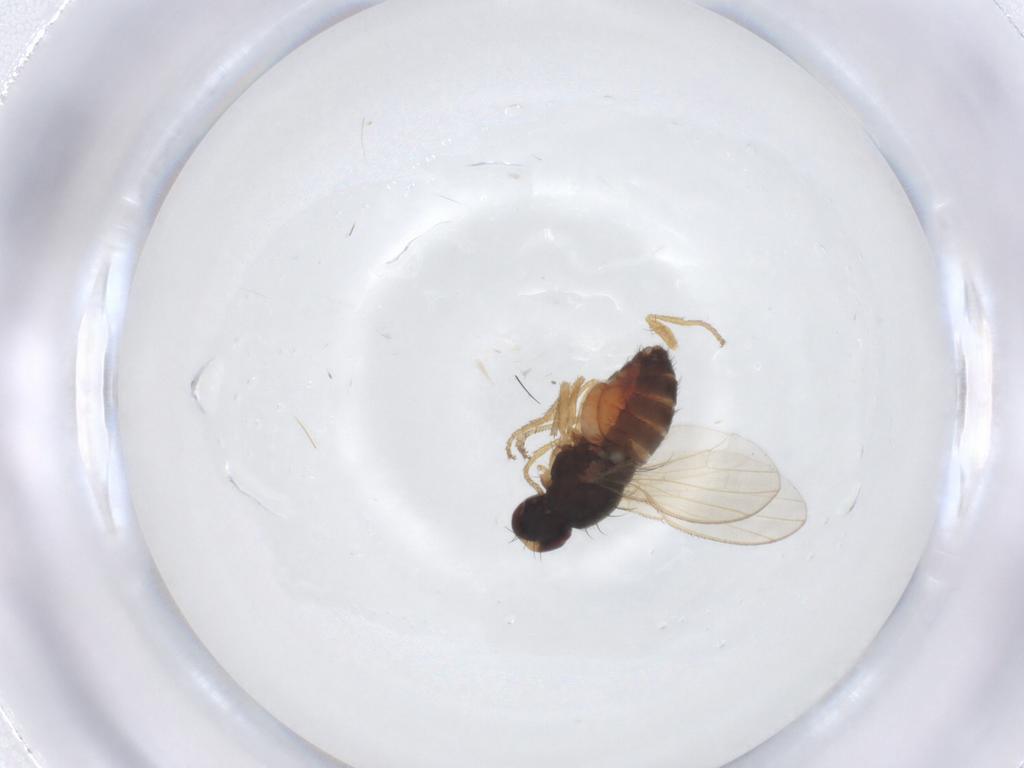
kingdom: Animalia
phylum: Arthropoda
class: Insecta
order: Diptera
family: Heleomyzidae
